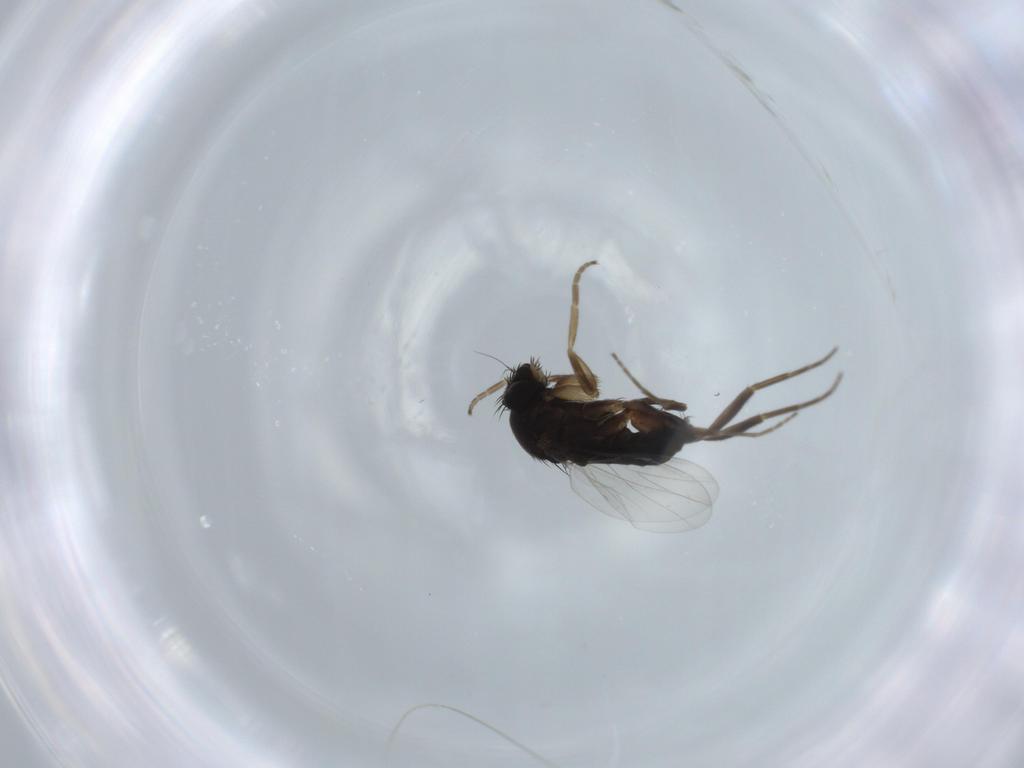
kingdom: Animalia
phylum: Arthropoda
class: Insecta
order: Diptera
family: Phoridae
